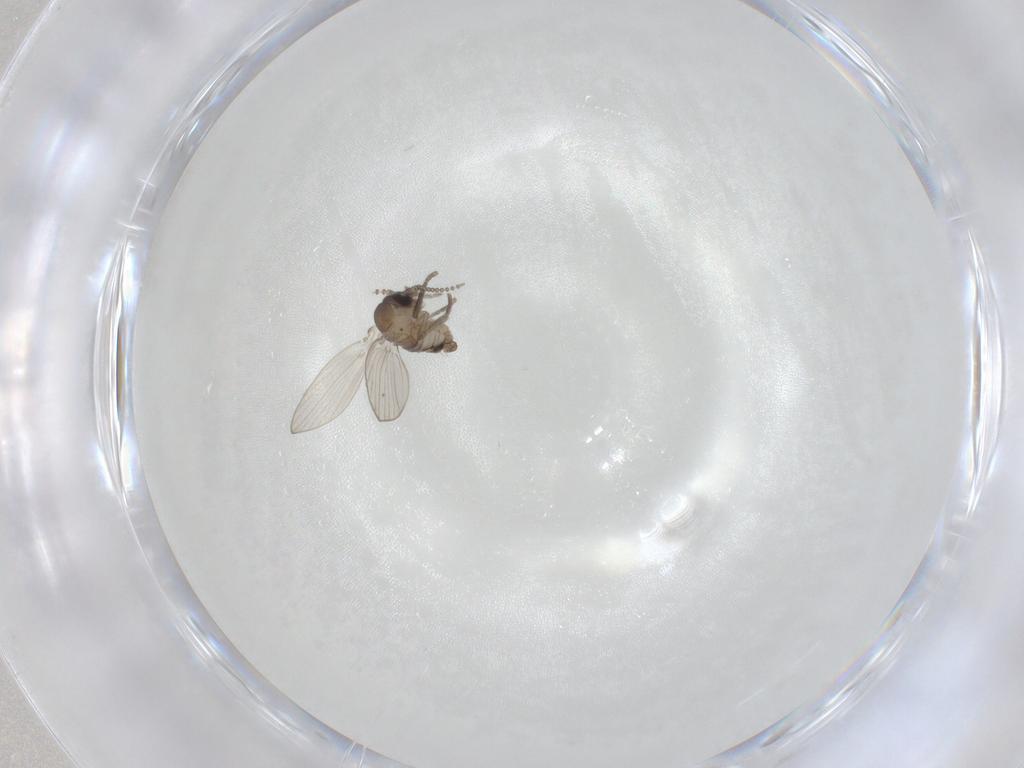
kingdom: Animalia
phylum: Arthropoda
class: Insecta
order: Diptera
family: Psychodidae
